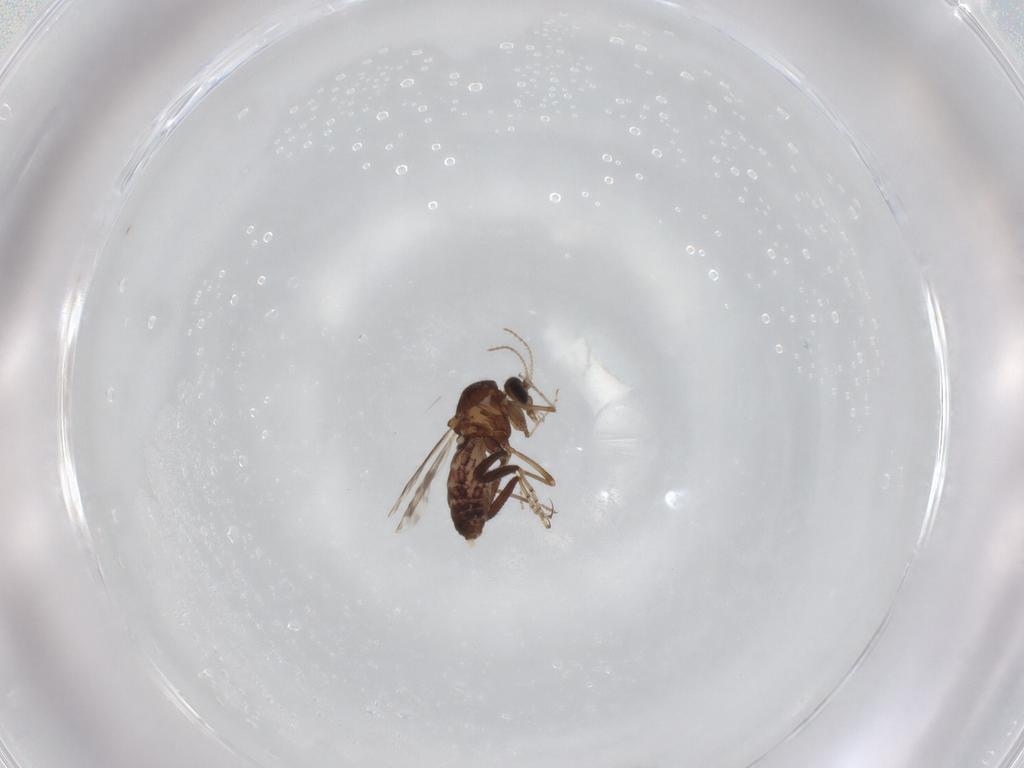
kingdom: Animalia
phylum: Arthropoda
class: Insecta
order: Diptera
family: Ceratopogonidae
